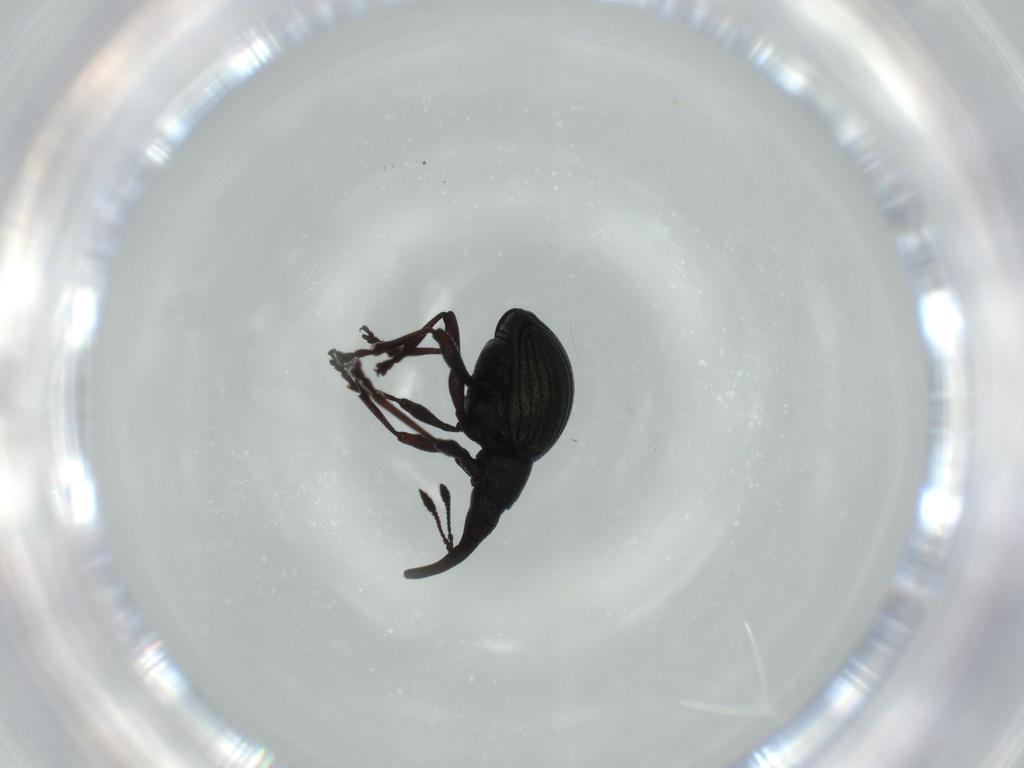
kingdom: Animalia
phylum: Arthropoda
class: Insecta
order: Coleoptera
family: Brentidae
